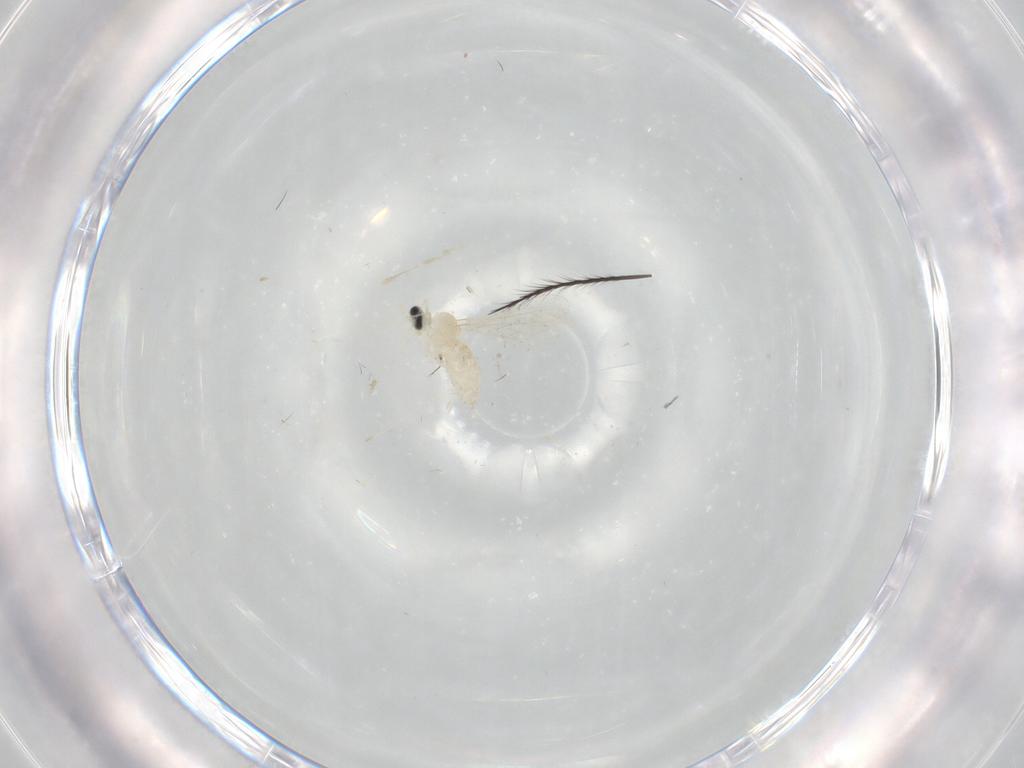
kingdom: Animalia
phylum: Arthropoda
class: Insecta
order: Diptera
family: Cecidomyiidae
